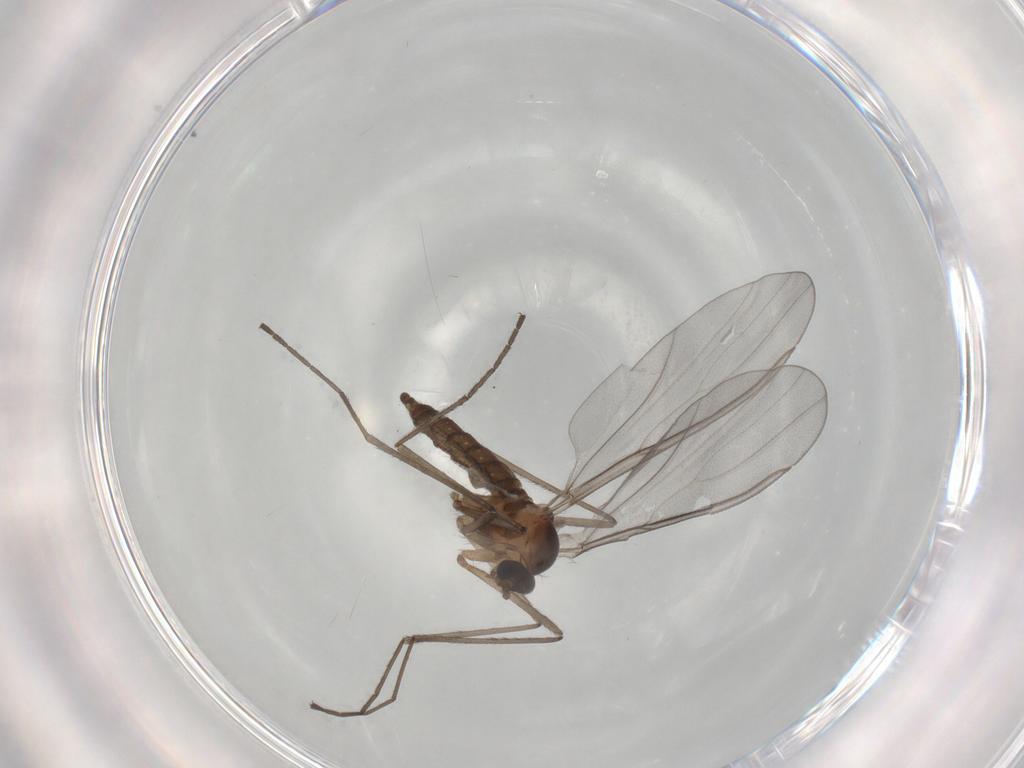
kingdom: Animalia
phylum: Arthropoda
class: Insecta
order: Diptera
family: Cecidomyiidae
